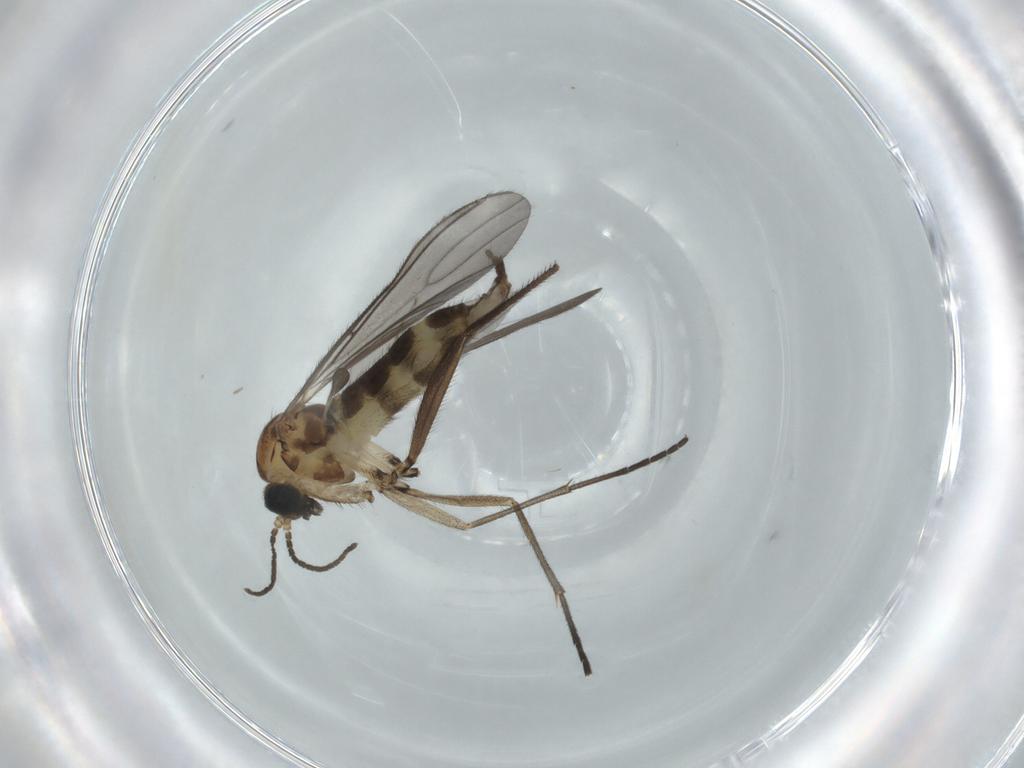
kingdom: Animalia
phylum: Arthropoda
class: Insecta
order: Diptera
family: Sciaridae
